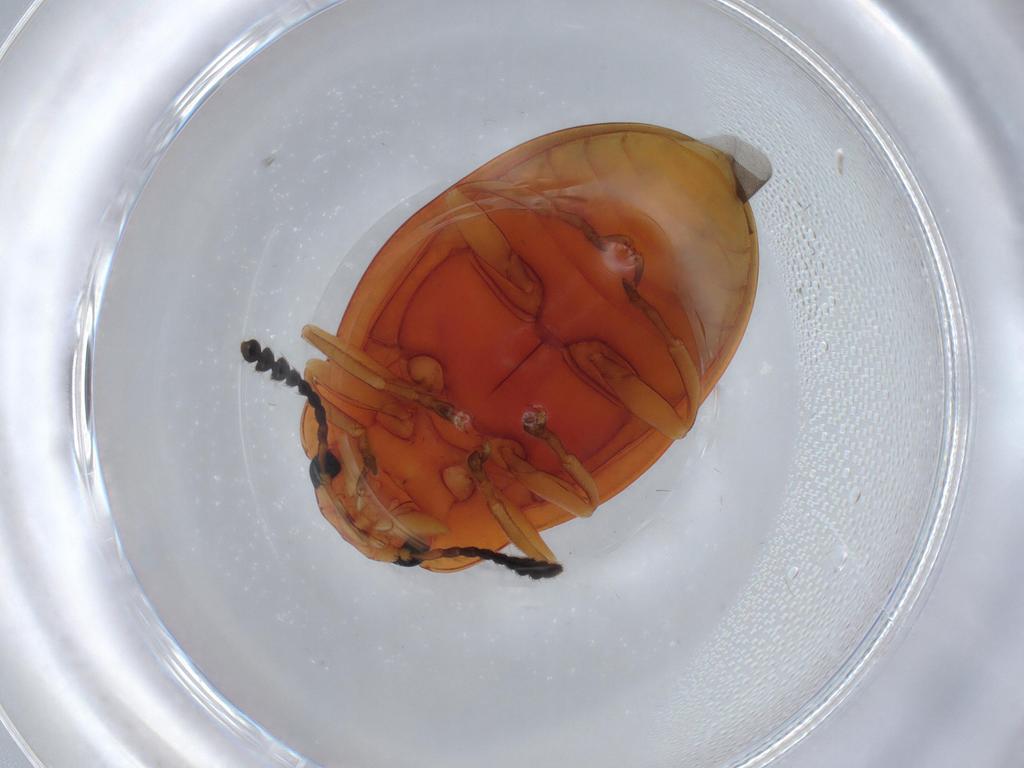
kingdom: Animalia
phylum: Arthropoda
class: Insecta
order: Coleoptera
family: Erotylidae
